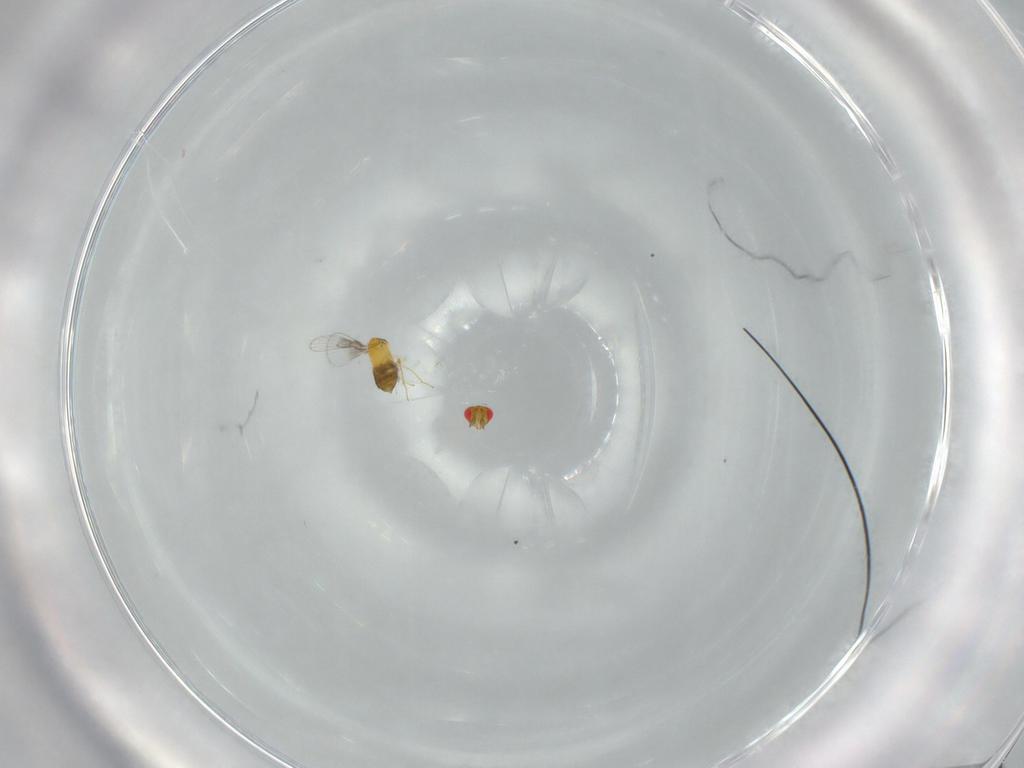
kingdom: Animalia
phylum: Arthropoda
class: Insecta
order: Hymenoptera
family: Trichogrammatidae
